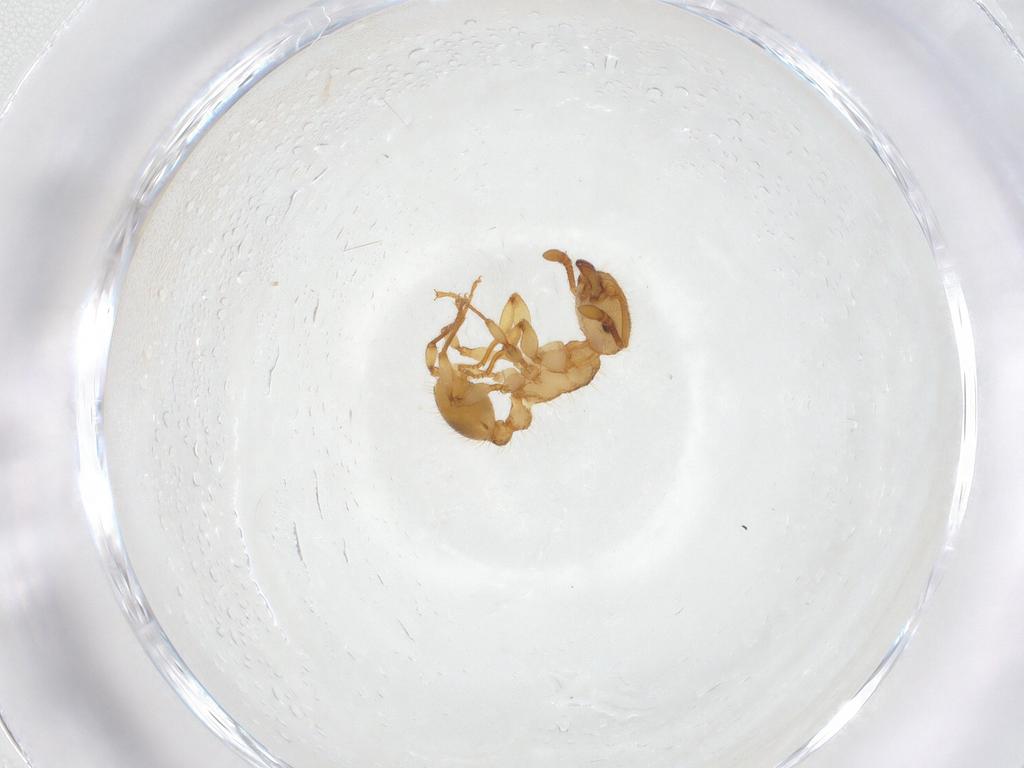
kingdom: Animalia
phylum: Arthropoda
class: Insecta
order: Hymenoptera
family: Formicidae
